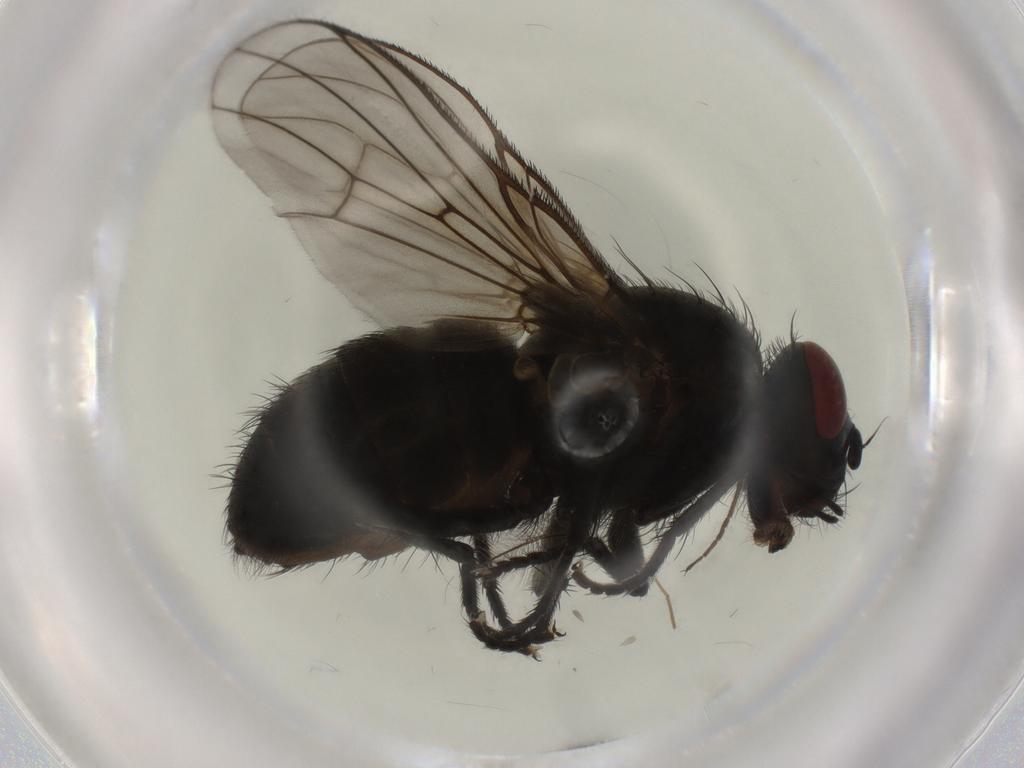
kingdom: Animalia
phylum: Arthropoda
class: Insecta
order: Diptera
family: Muscidae
